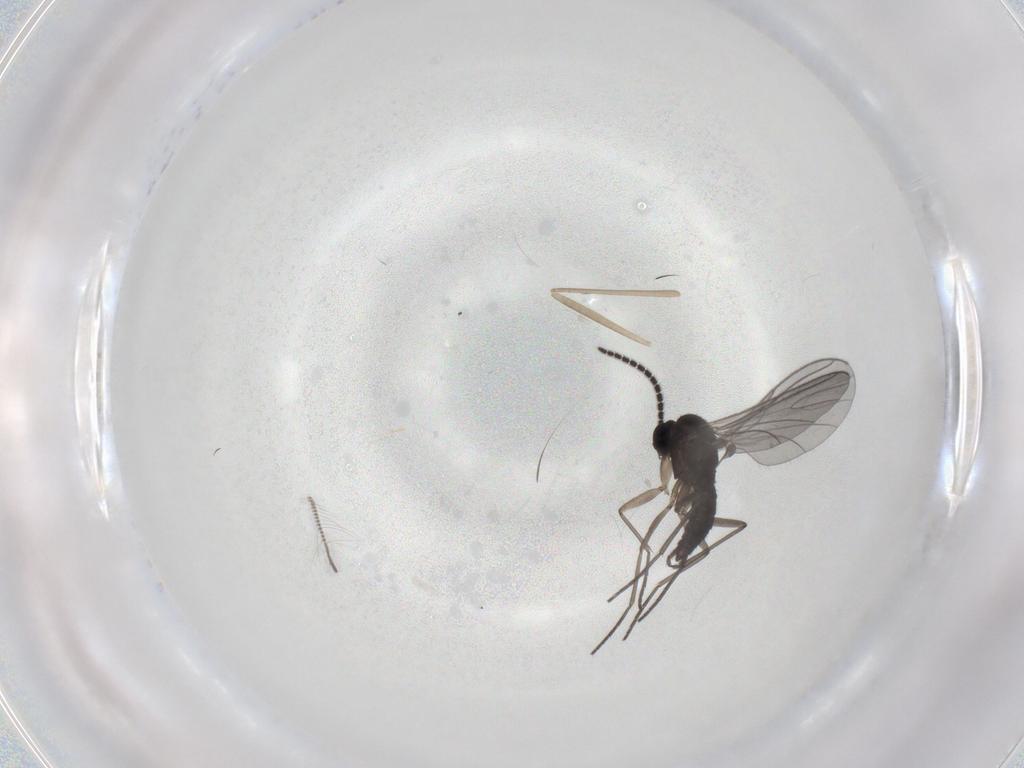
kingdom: Animalia
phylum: Arthropoda
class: Insecta
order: Diptera
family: Sciaridae
